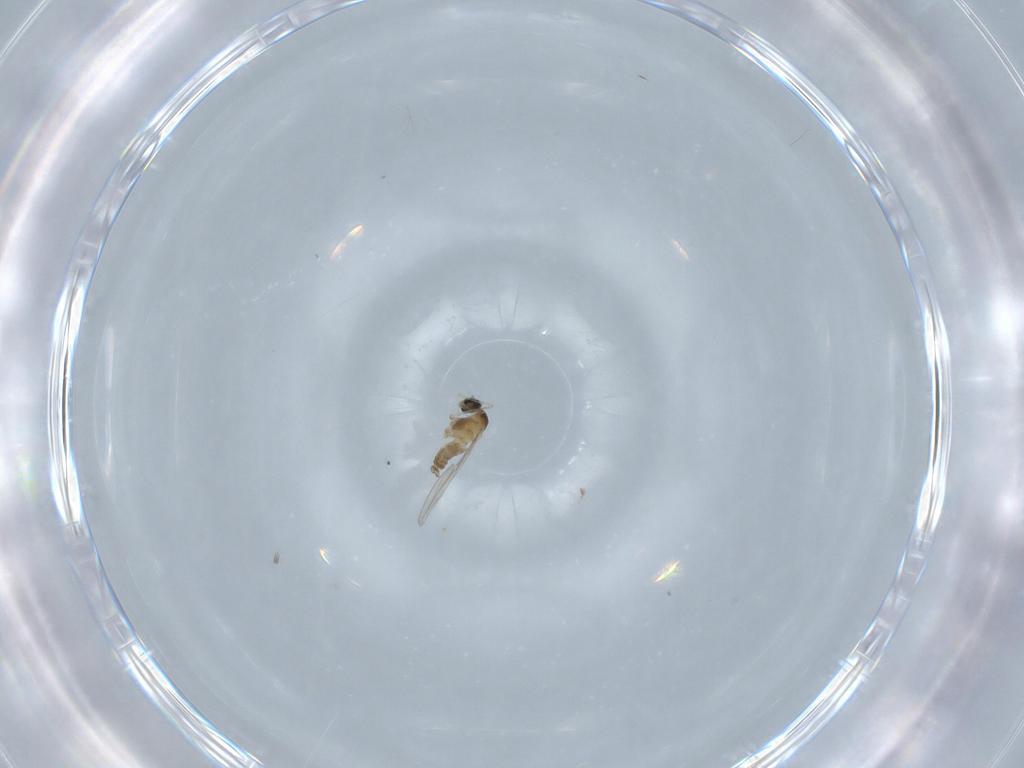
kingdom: Animalia
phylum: Arthropoda
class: Insecta
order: Diptera
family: Cecidomyiidae
